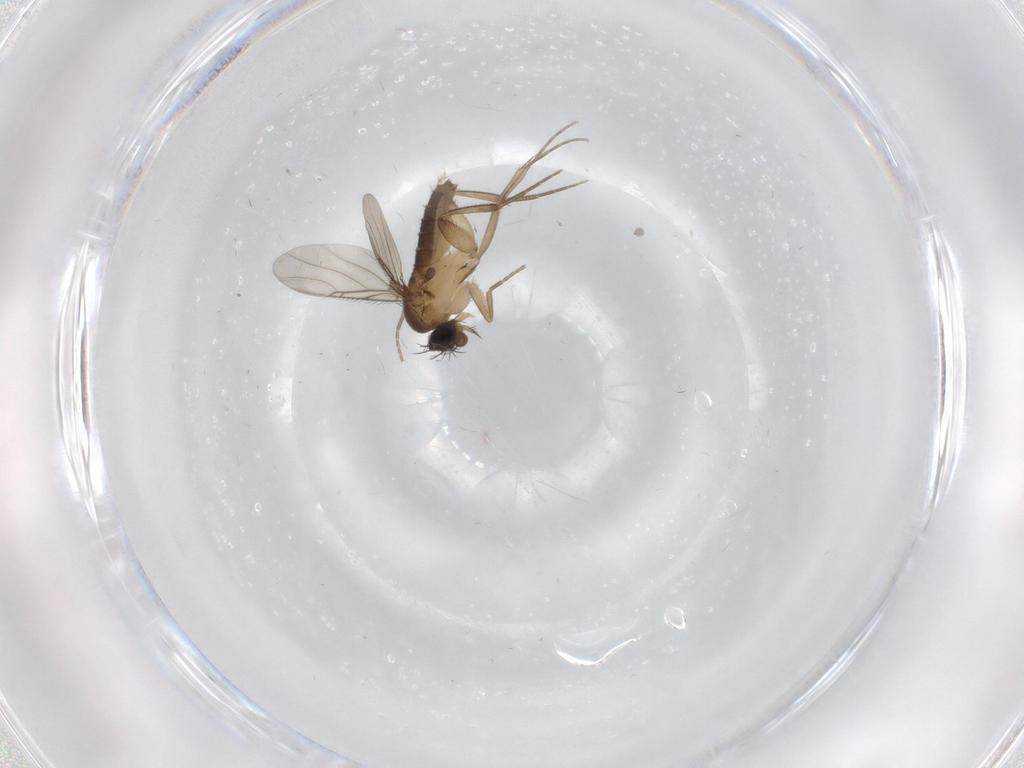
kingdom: Animalia
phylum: Arthropoda
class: Insecta
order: Diptera
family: Phoridae
